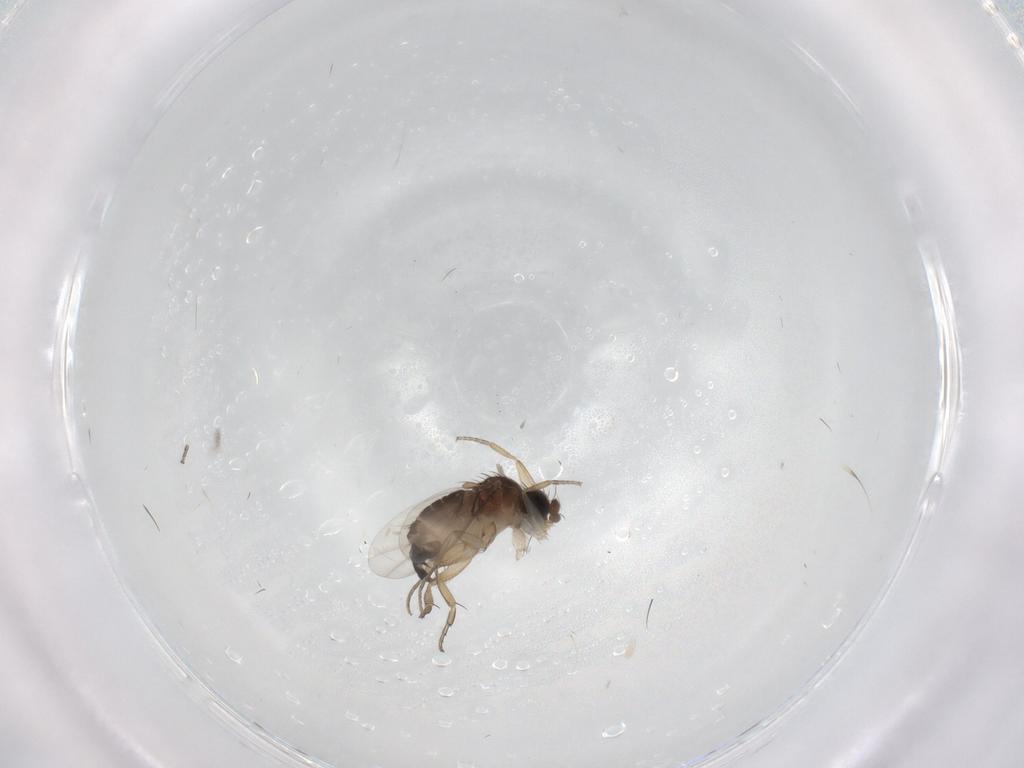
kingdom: Animalia
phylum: Arthropoda
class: Insecta
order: Diptera
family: Phoridae
